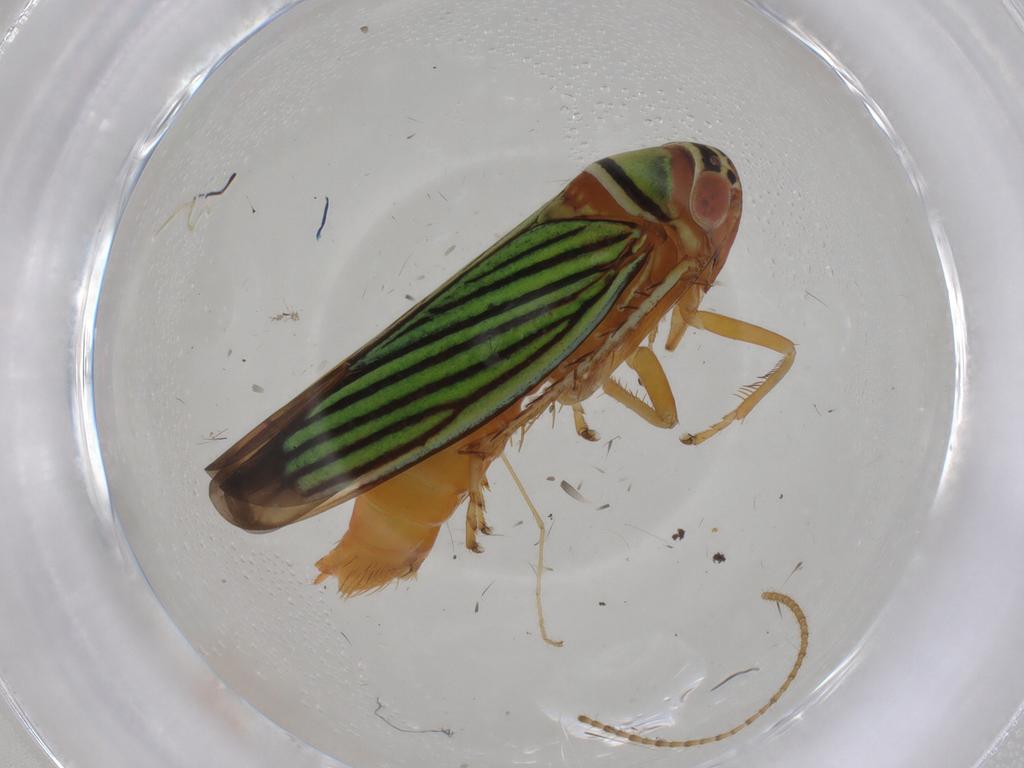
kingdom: Animalia
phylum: Arthropoda
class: Insecta
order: Hemiptera
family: Cicadellidae
